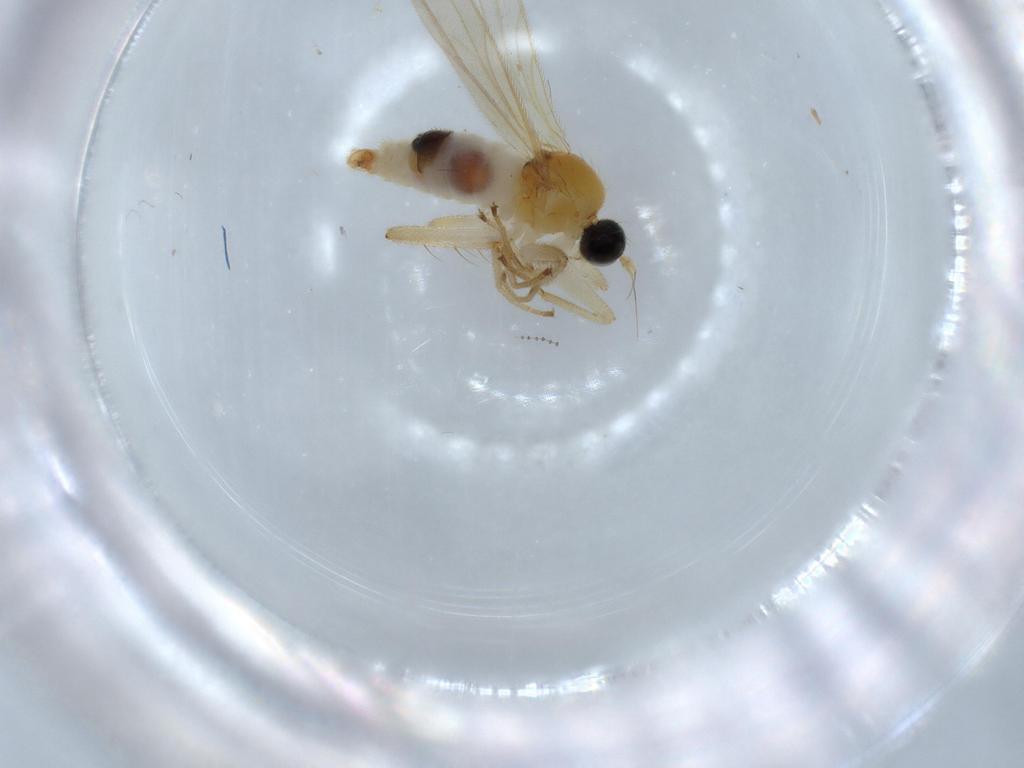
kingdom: Animalia
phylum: Arthropoda
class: Insecta
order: Diptera
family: Hybotidae
